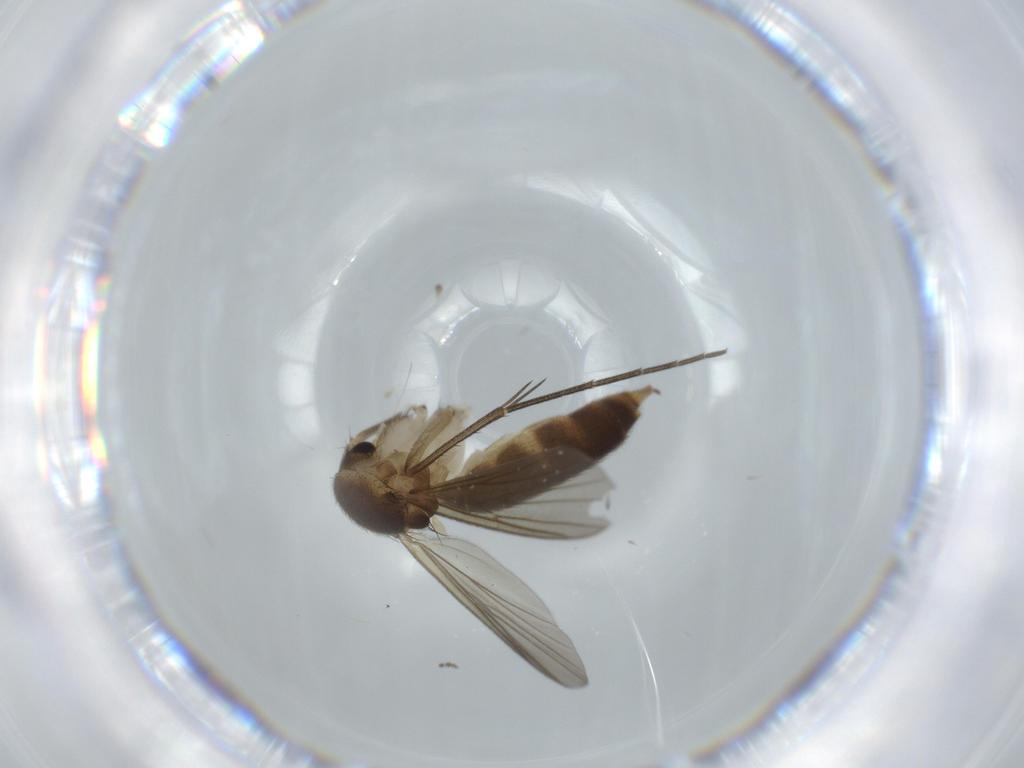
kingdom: Animalia
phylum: Arthropoda
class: Insecta
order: Diptera
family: Mycetophilidae
